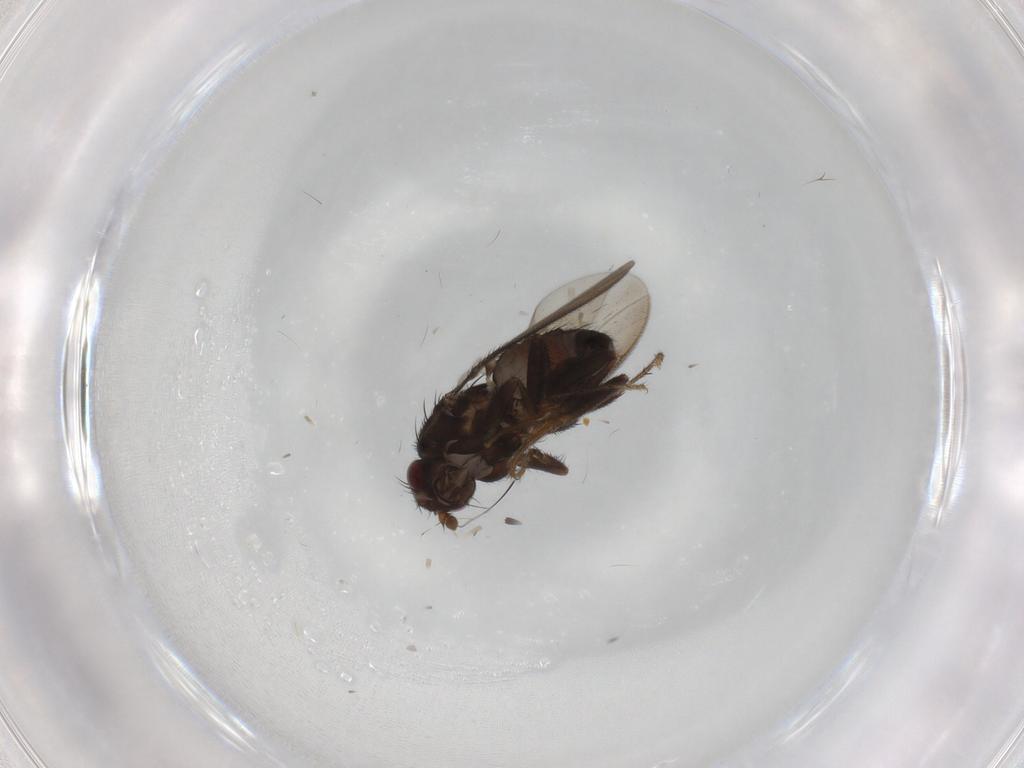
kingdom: Animalia
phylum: Arthropoda
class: Insecta
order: Diptera
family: Sphaeroceridae
